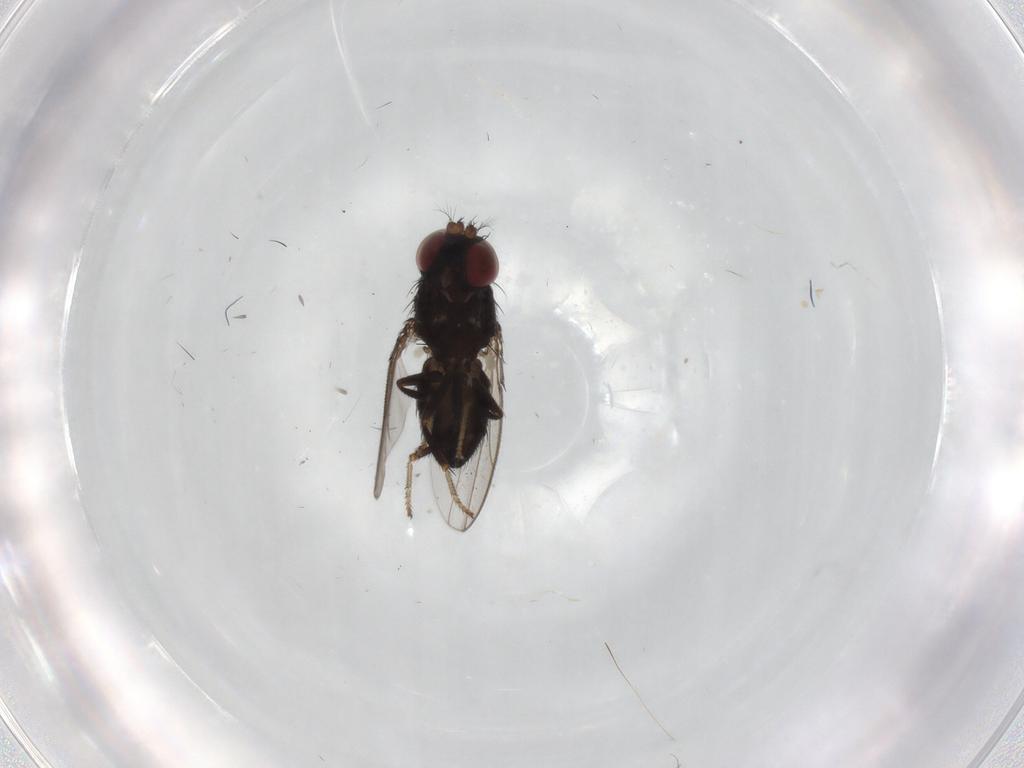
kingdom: Animalia
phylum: Arthropoda
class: Insecta
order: Diptera
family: Ephydridae
